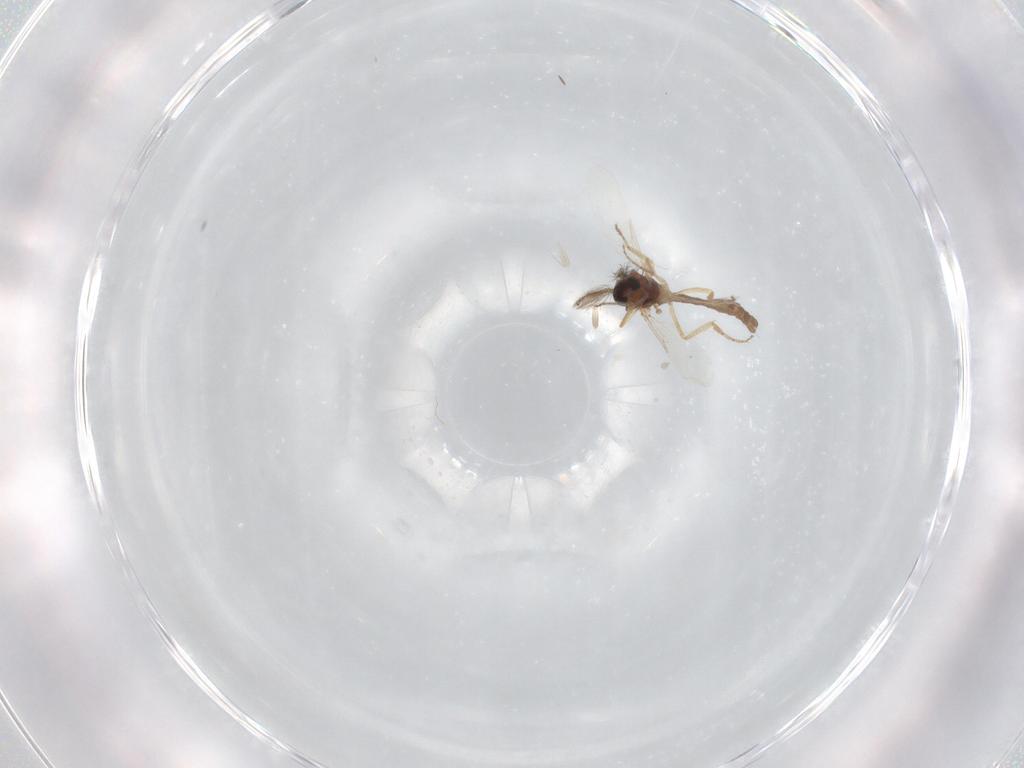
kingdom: Animalia
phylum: Arthropoda
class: Insecta
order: Diptera
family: Ceratopogonidae
